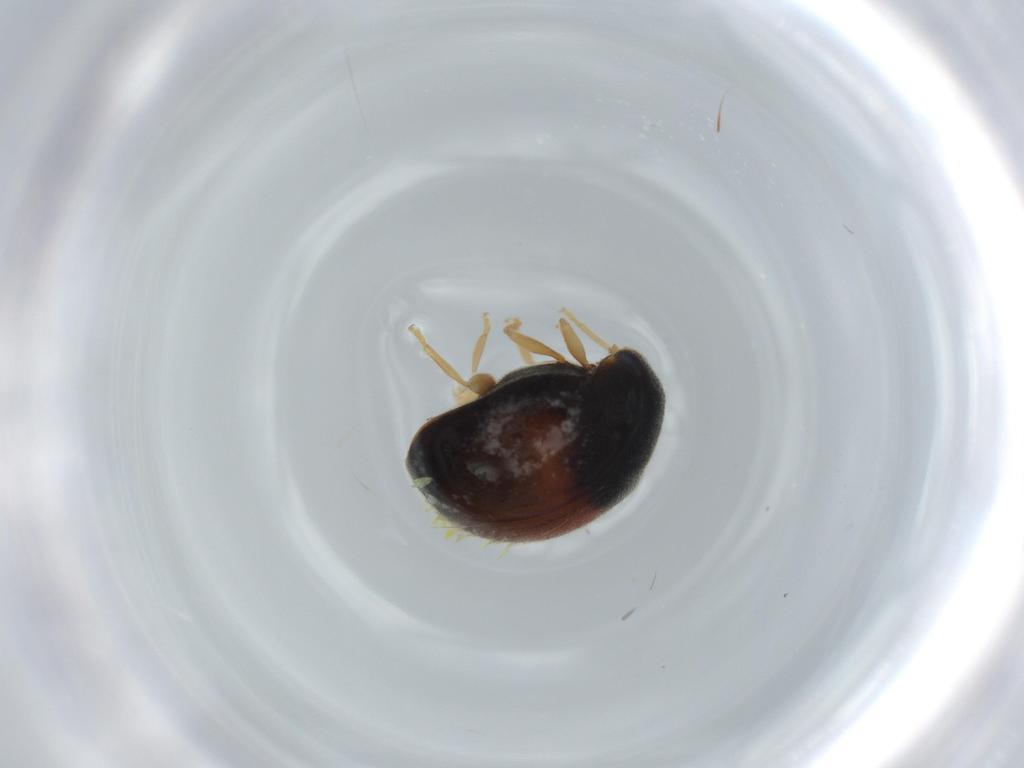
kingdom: Animalia
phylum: Arthropoda
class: Insecta
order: Coleoptera
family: Coccinellidae
